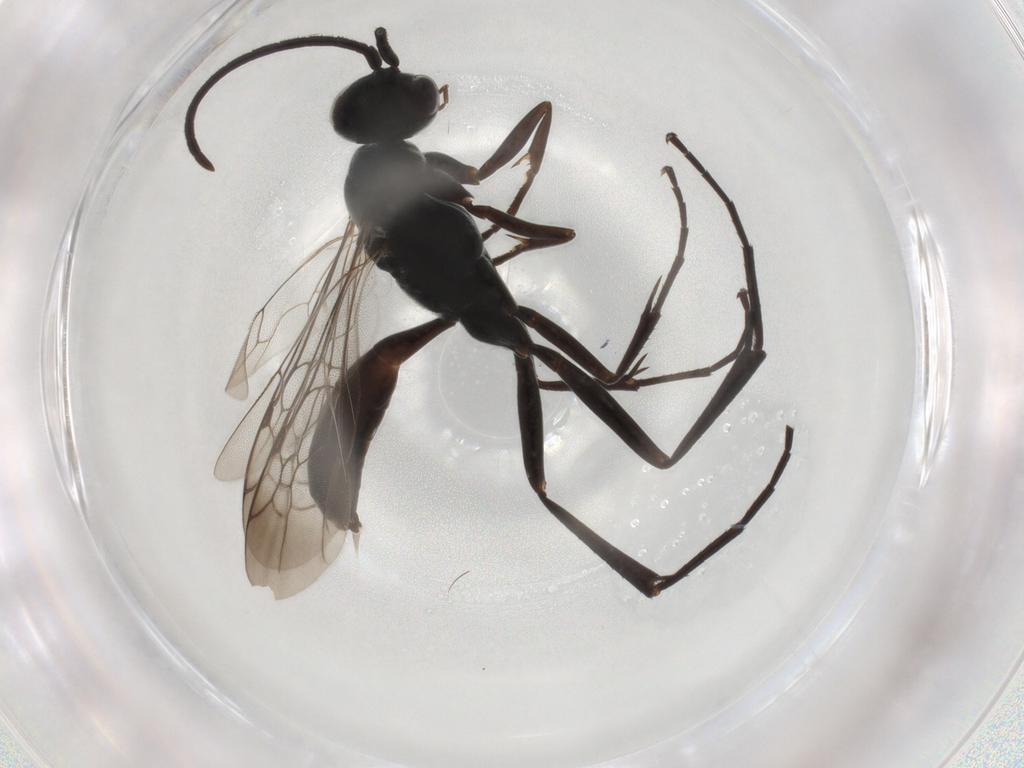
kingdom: Animalia
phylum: Arthropoda
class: Insecta
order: Hymenoptera
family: Pompilidae
